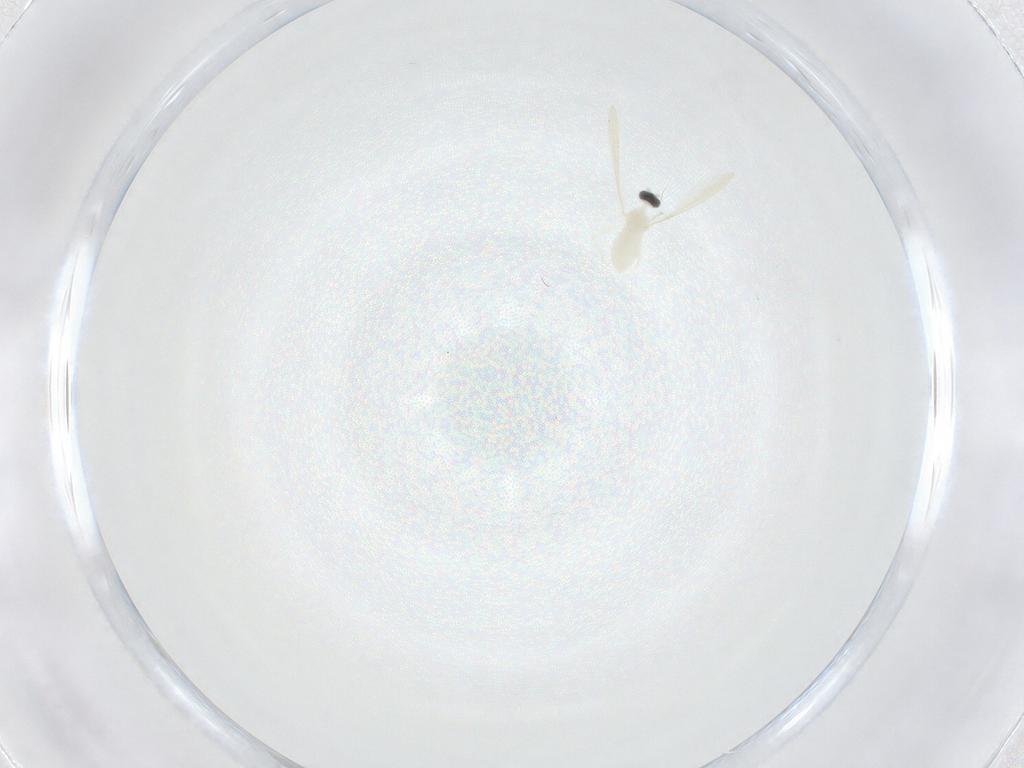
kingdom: Animalia
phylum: Arthropoda
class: Insecta
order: Diptera
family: Cecidomyiidae
